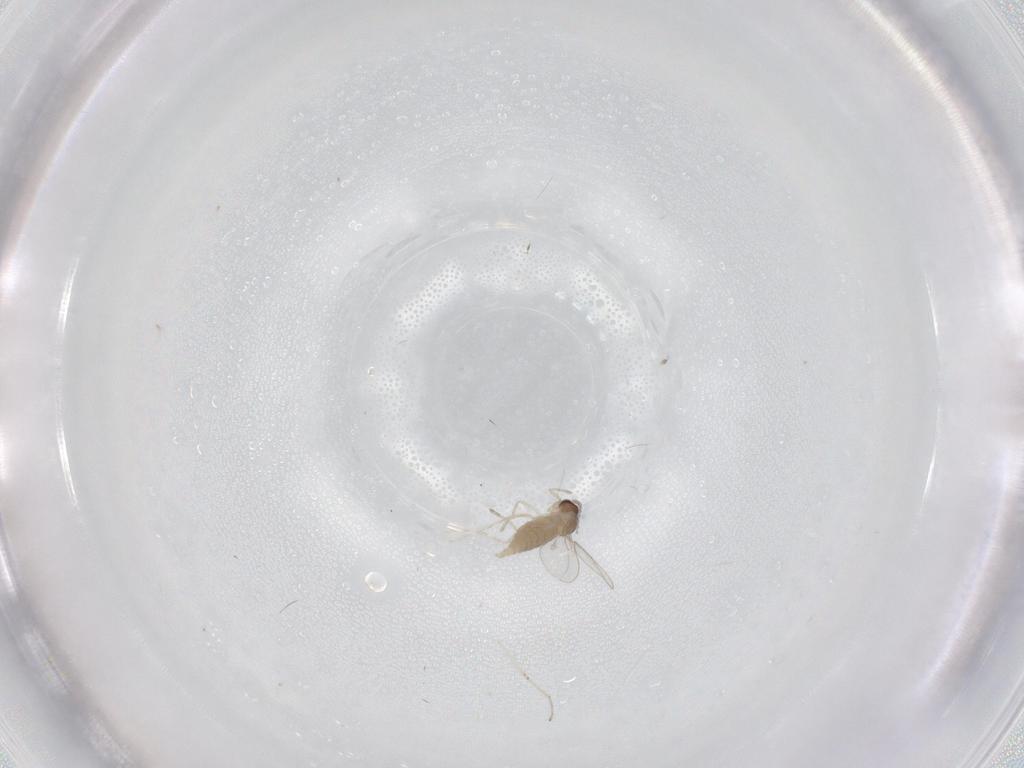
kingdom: Animalia
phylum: Arthropoda
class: Insecta
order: Diptera
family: Cecidomyiidae
